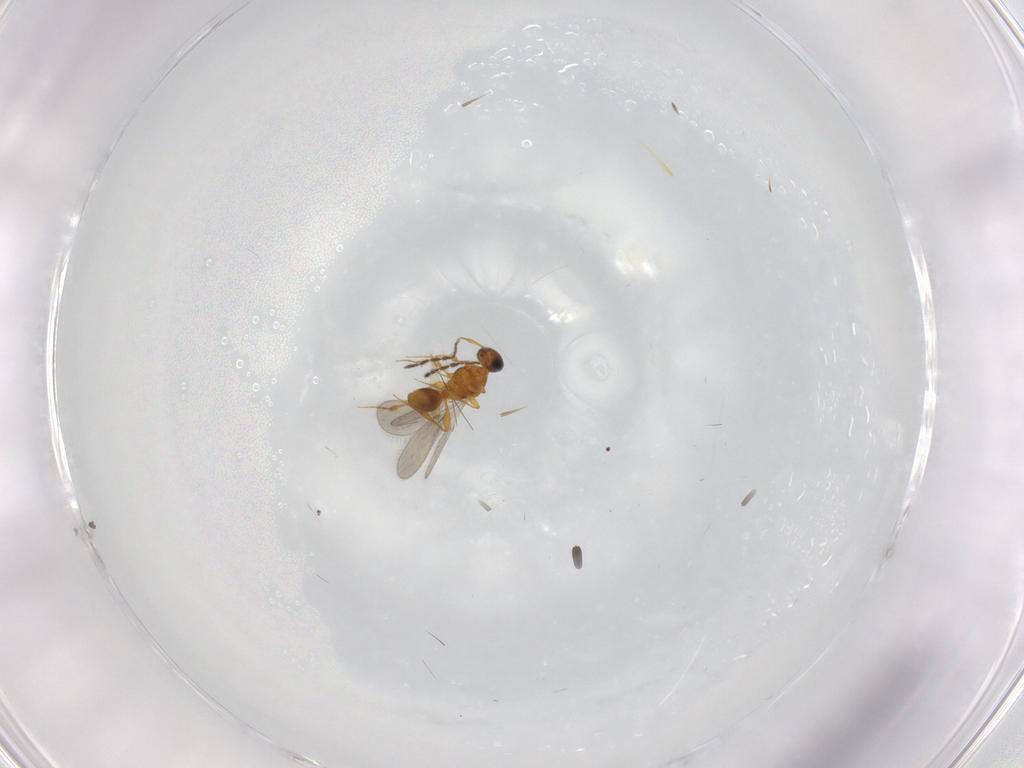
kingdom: Animalia
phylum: Arthropoda
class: Insecta
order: Hymenoptera
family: Platygastridae
